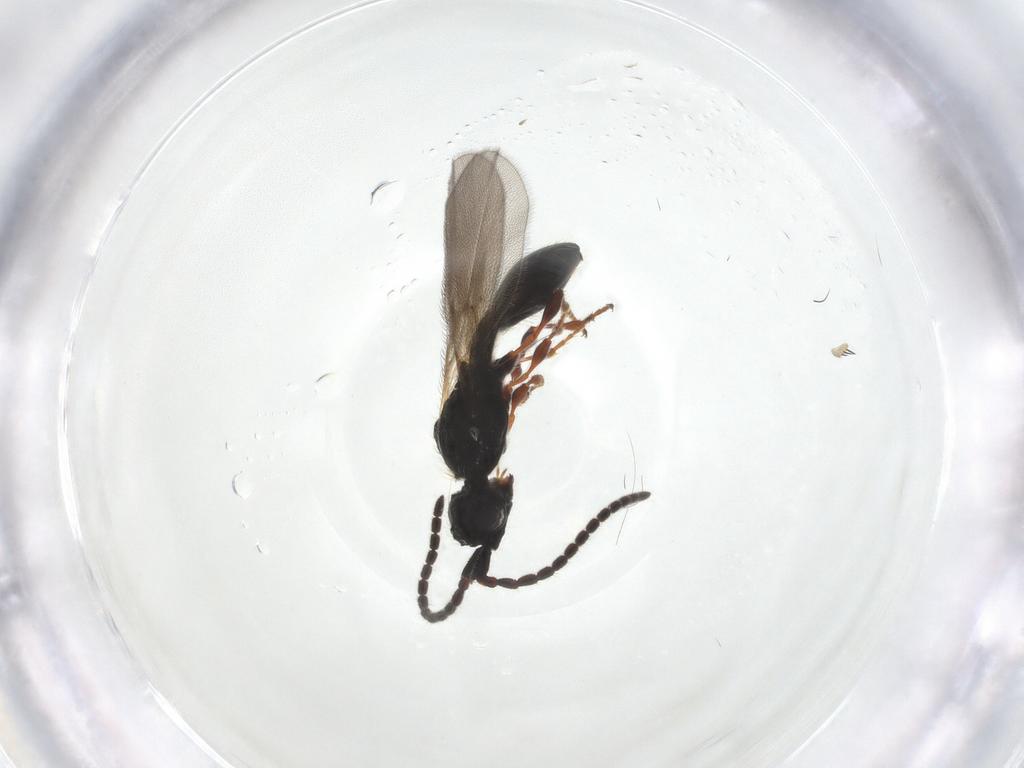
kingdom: Animalia
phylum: Arthropoda
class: Insecta
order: Hymenoptera
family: Diapriidae
